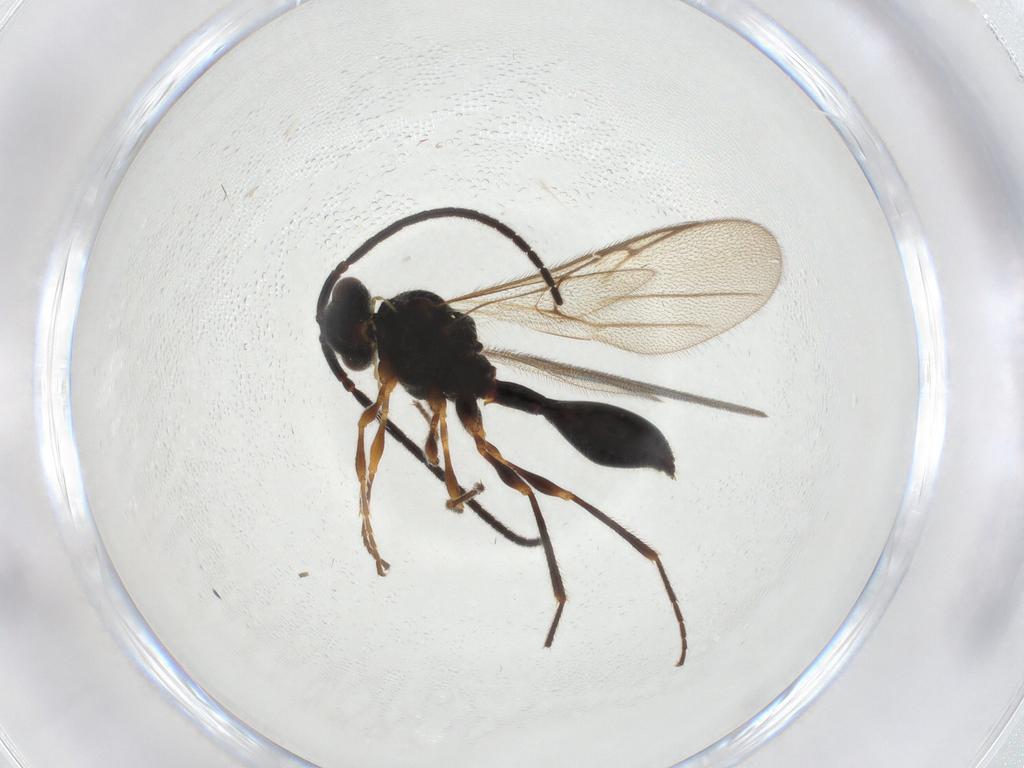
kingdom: Animalia
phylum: Arthropoda
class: Insecta
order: Hymenoptera
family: Diapriidae
